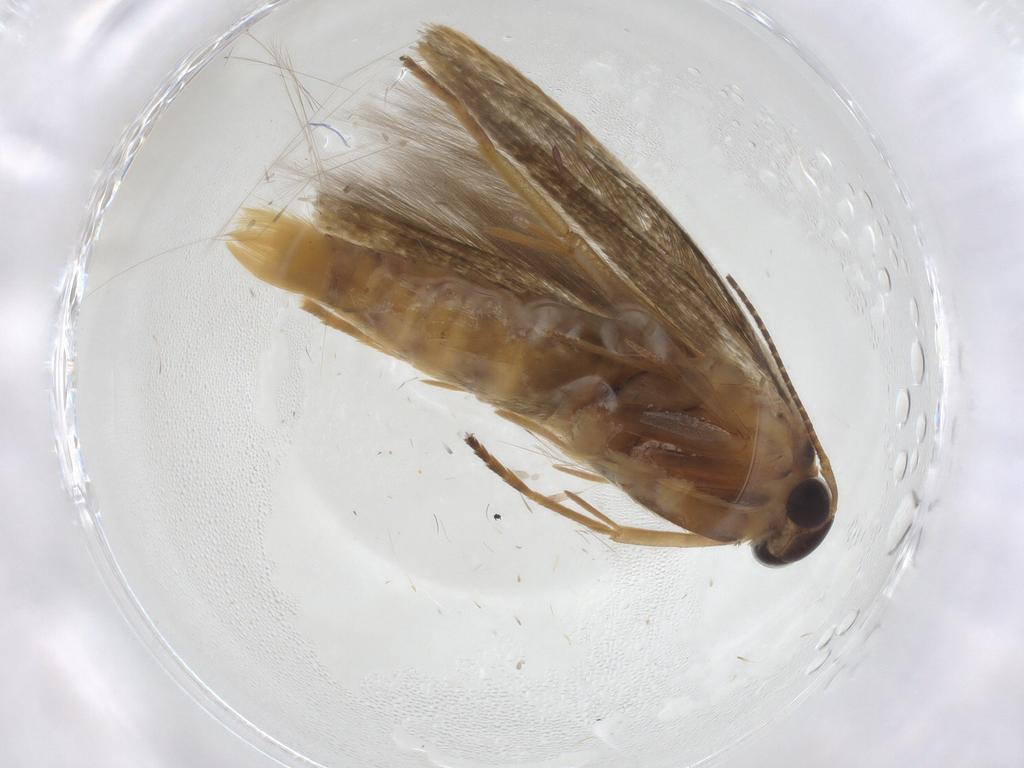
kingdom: Animalia
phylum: Arthropoda
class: Insecta
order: Lepidoptera
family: Stathmopodidae
